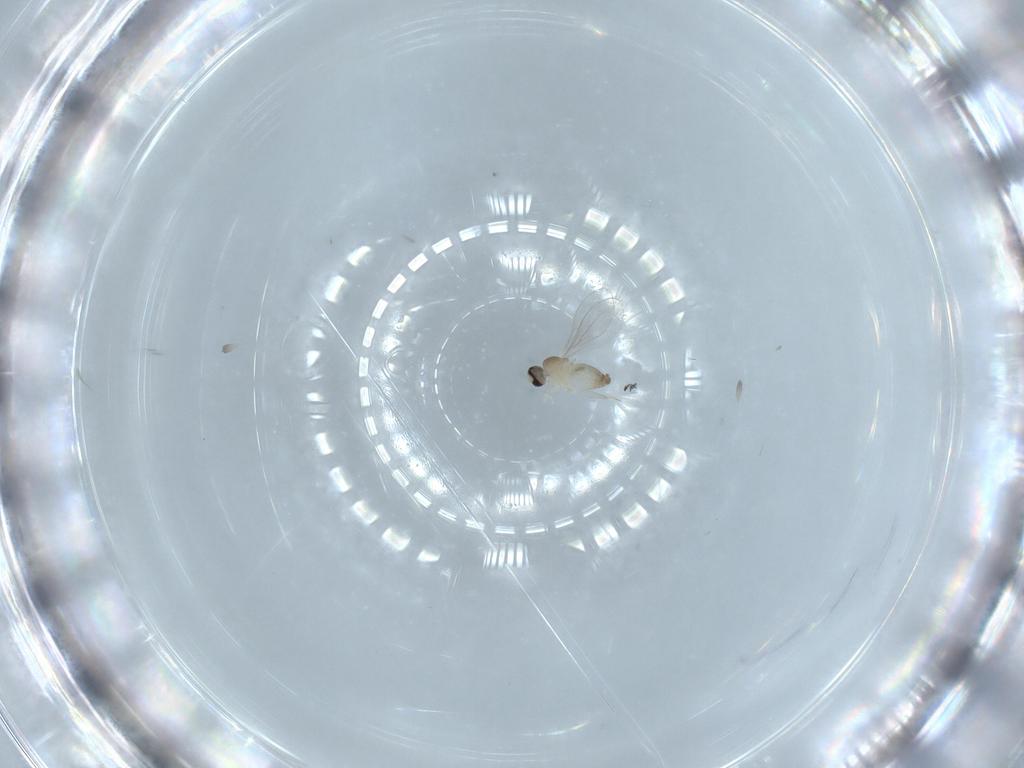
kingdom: Animalia
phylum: Arthropoda
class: Insecta
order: Diptera
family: Cecidomyiidae
